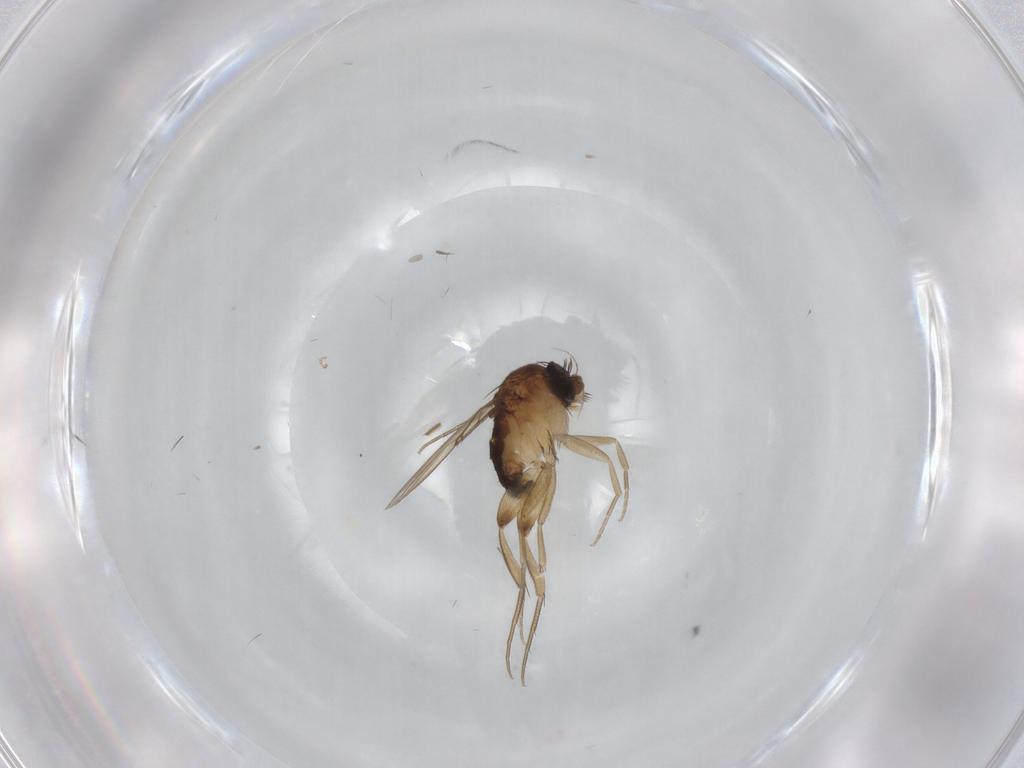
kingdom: Animalia
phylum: Arthropoda
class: Insecta
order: Diptera
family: Phoridae
